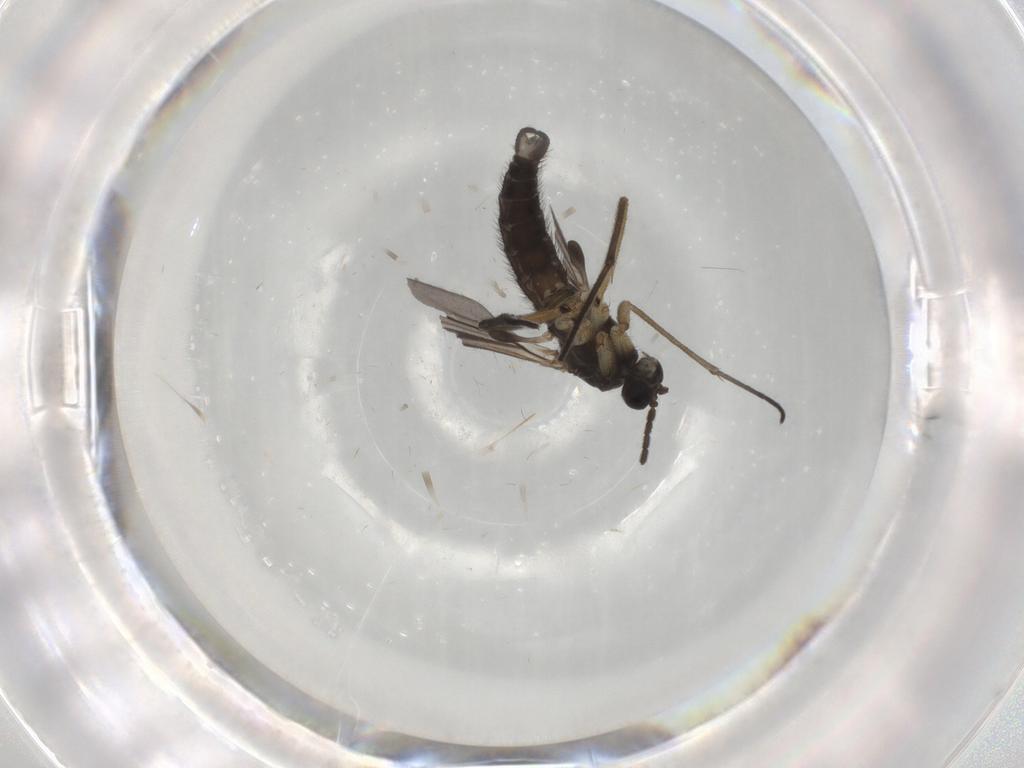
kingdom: Animalia
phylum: Arthropoda
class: Insecta
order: Diptera
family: Sciaridae
